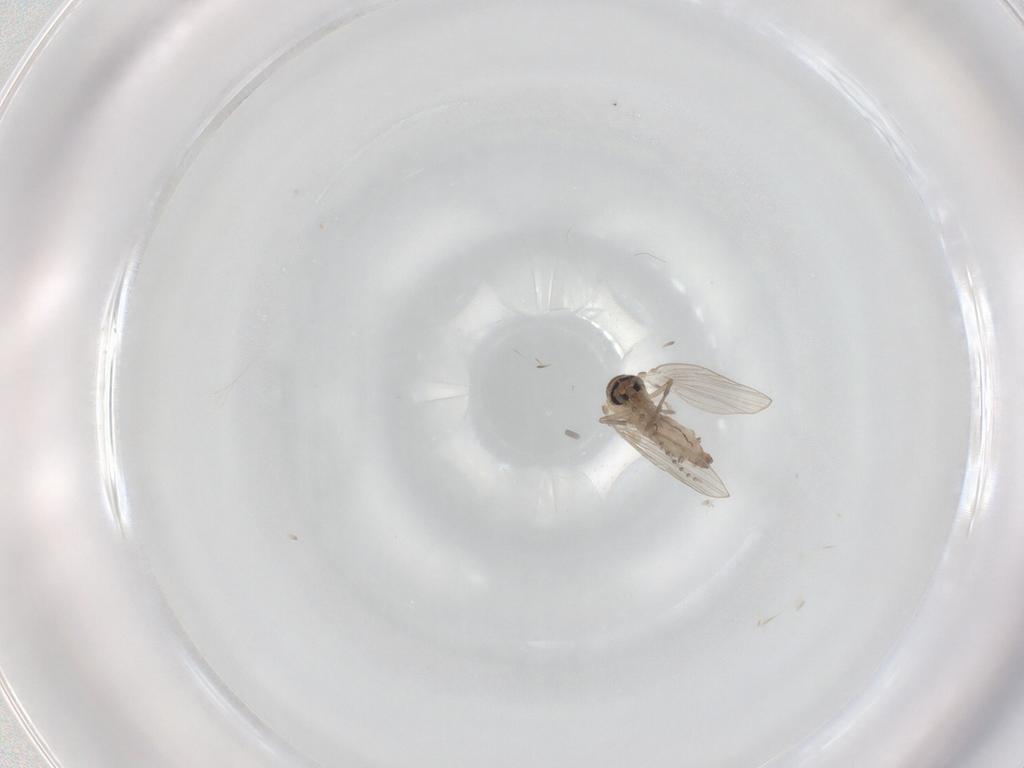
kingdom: Animalia
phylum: Arthropoda
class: Insecta
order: Diptera
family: Psychodidae
